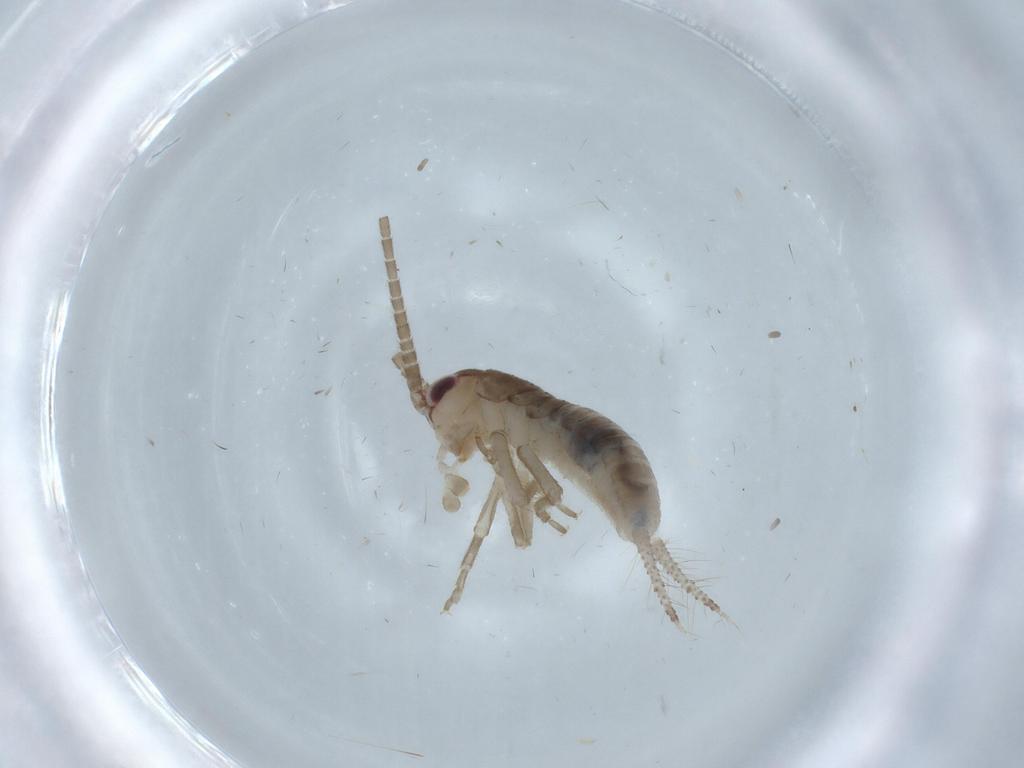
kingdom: Animalia
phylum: Arthropoda
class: Insecta
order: Orthoptera
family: Gryllidae
